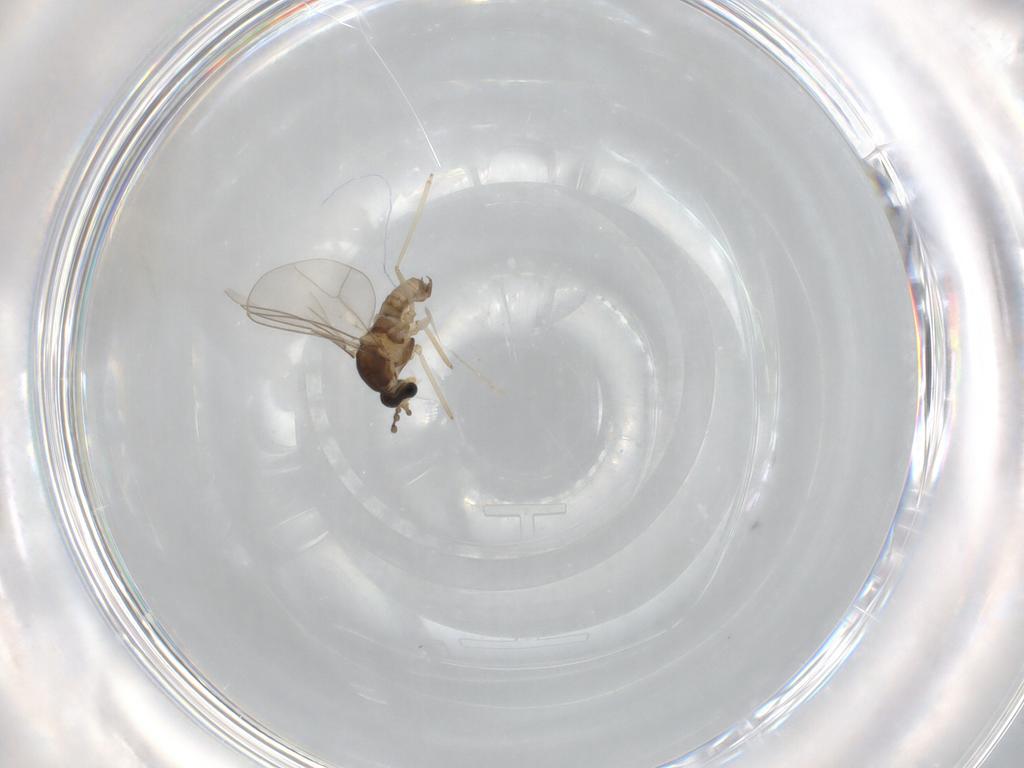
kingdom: Animalia
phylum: Arthropoda
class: Insecta
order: Diptera
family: Cecidomyiidae
